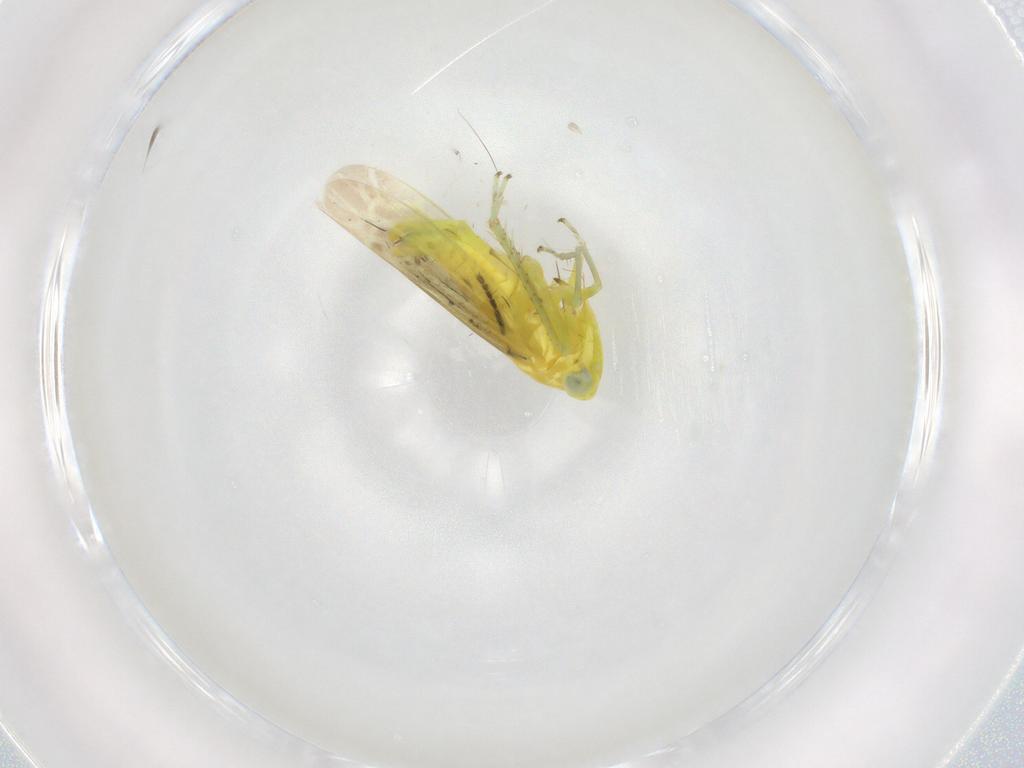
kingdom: Animalia
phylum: Arthropoda
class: Insecta
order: Hemiptera
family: Cicadellidae
